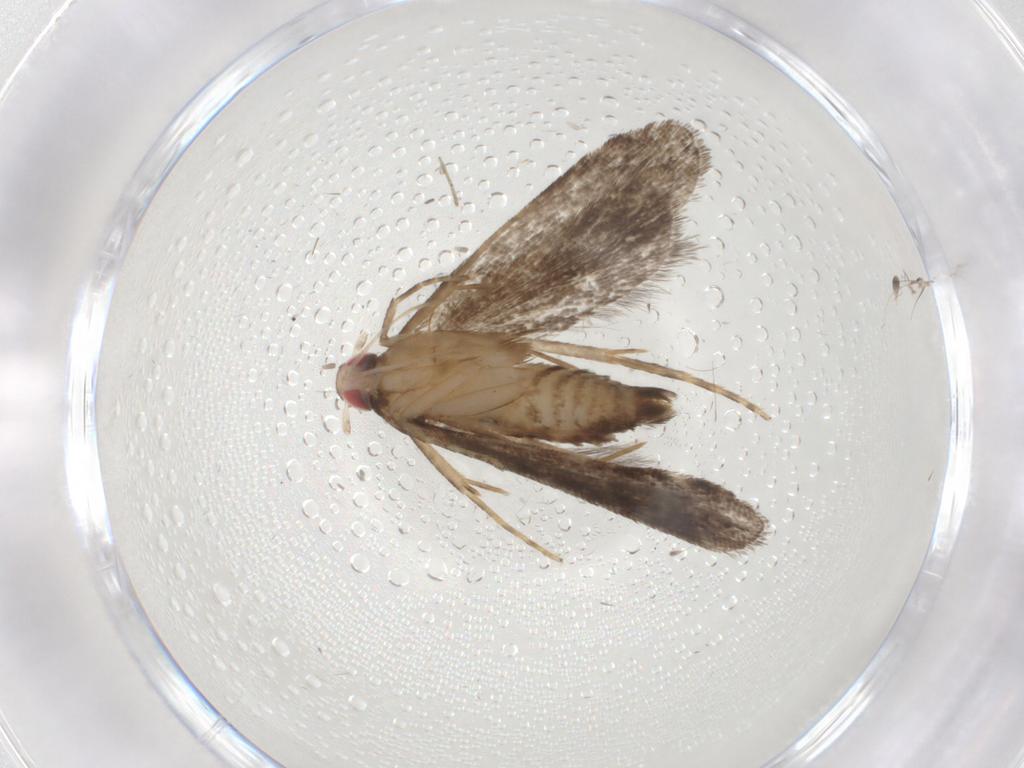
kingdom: Animalia
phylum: Arthropoda
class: Insecta
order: Lepidoptera
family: Gelechiidae
